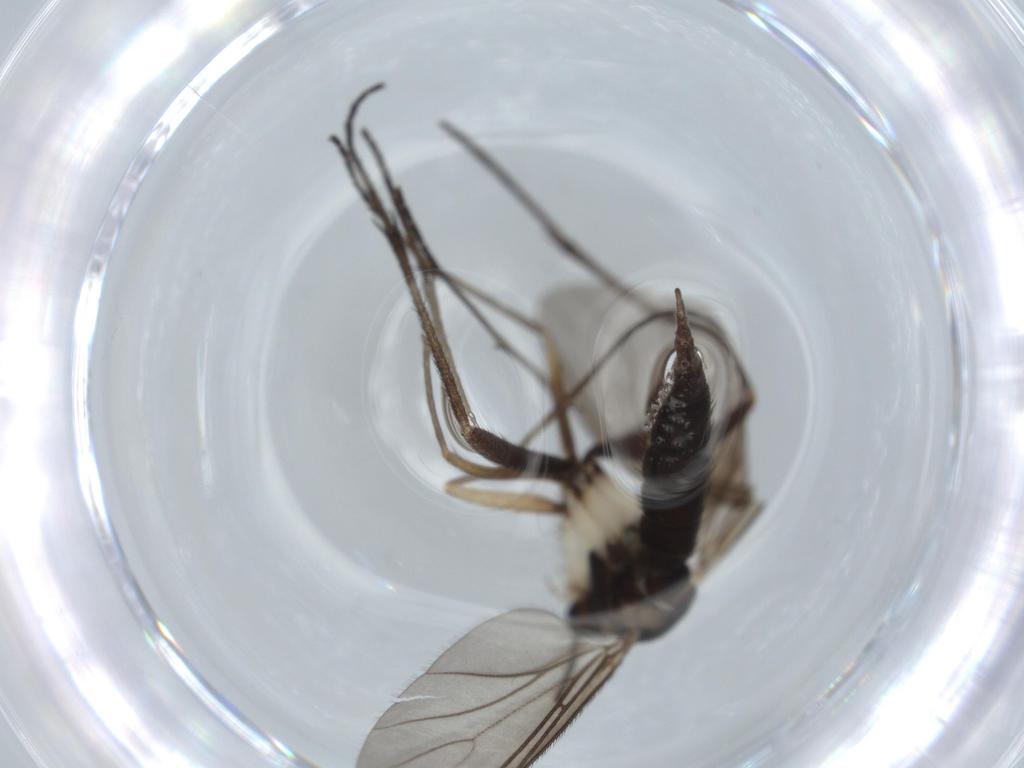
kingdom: Animalia
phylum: Arthropoda
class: Insecta
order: Diptera
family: Sciaridae
